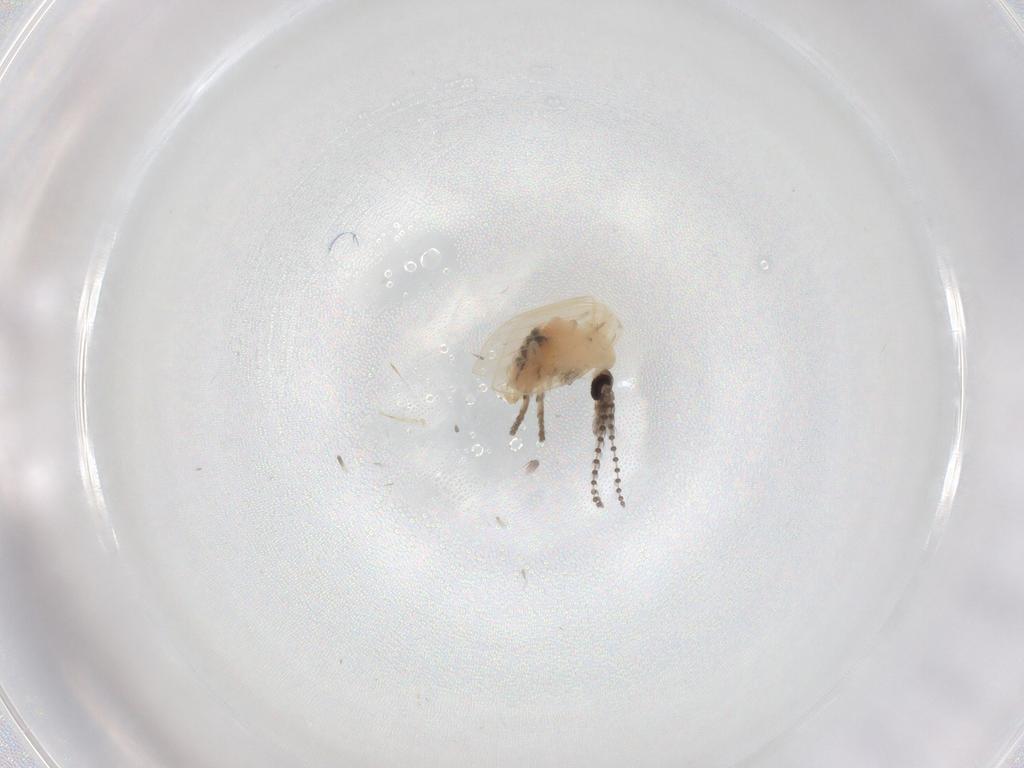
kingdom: Animalia
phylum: Arthropoda
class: Insecta
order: Diptera
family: Psychodidae
